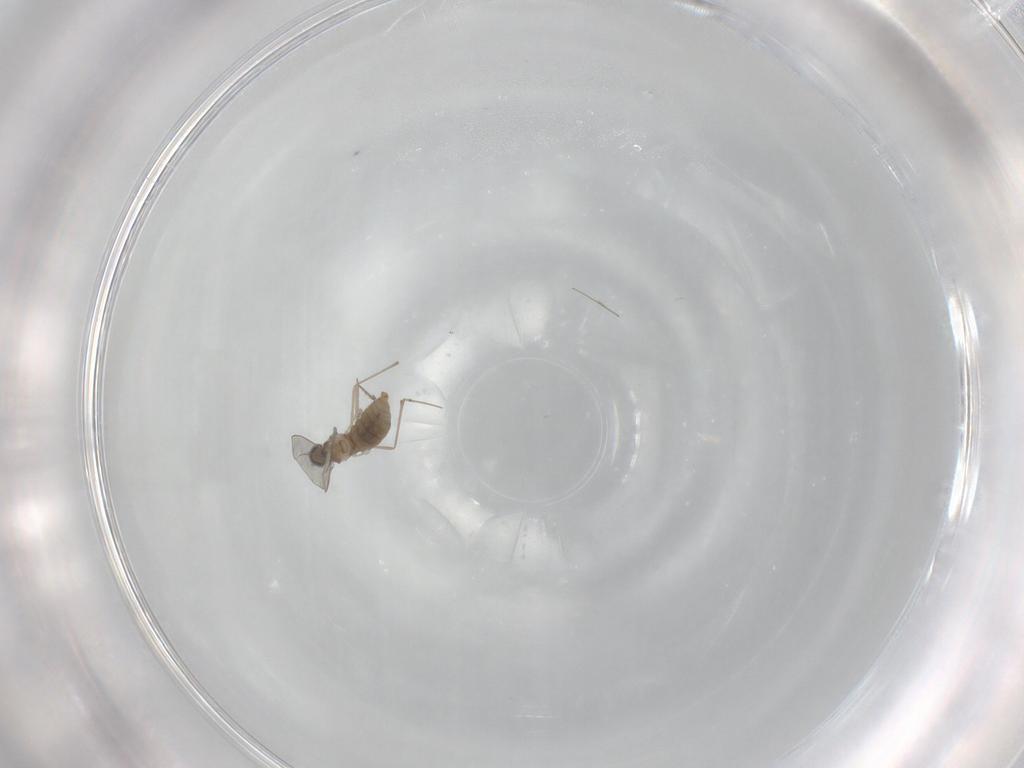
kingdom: Animalia
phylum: Arthropoda
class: Insecta
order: Diptera
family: Cecidomyiidae
